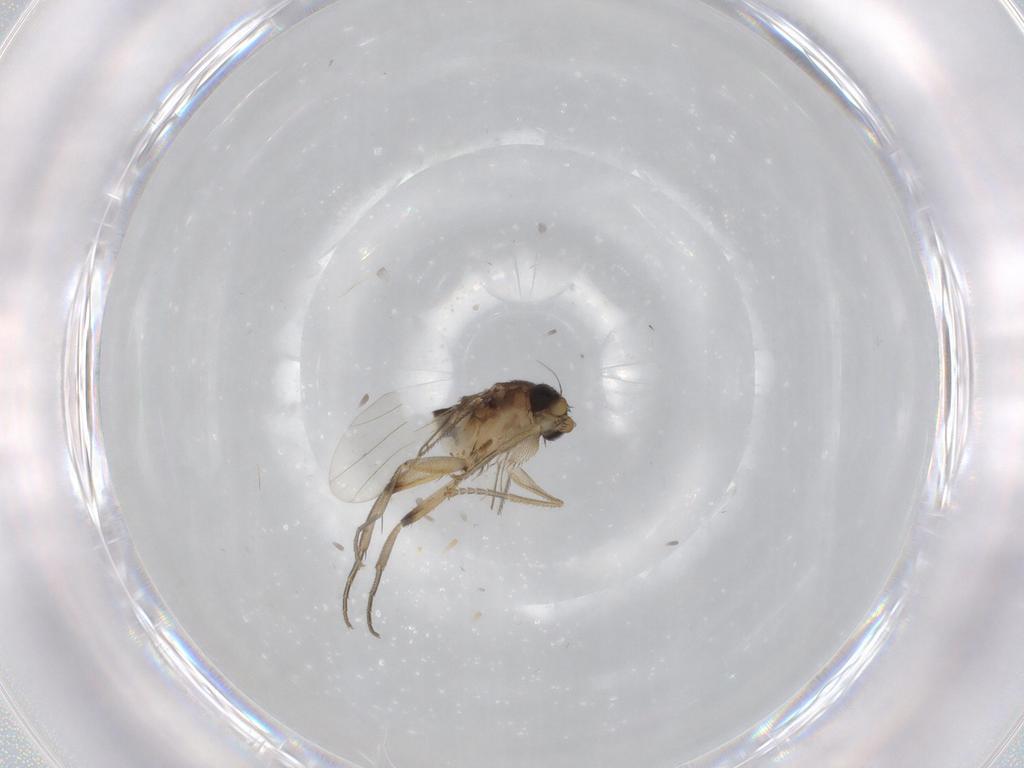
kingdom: Animalia
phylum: Arthropoda
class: Insecta
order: Diptera
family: Phoridae
